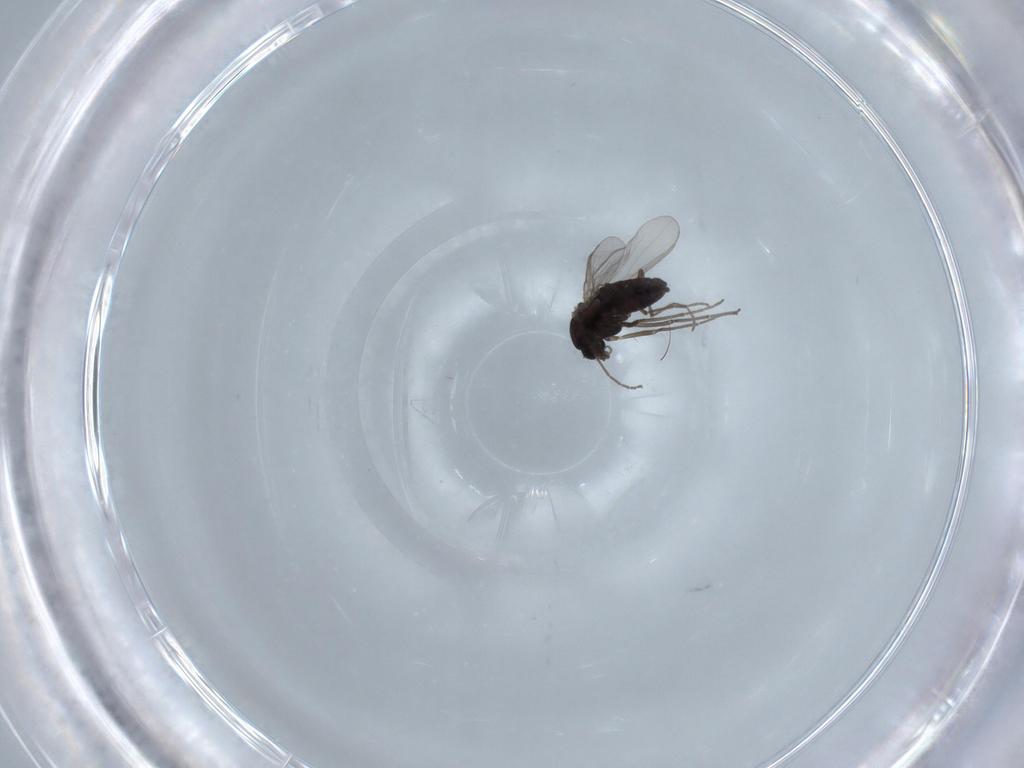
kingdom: Animalia
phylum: Arthropoda
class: Insecta
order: Diptera
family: Chironomidae
